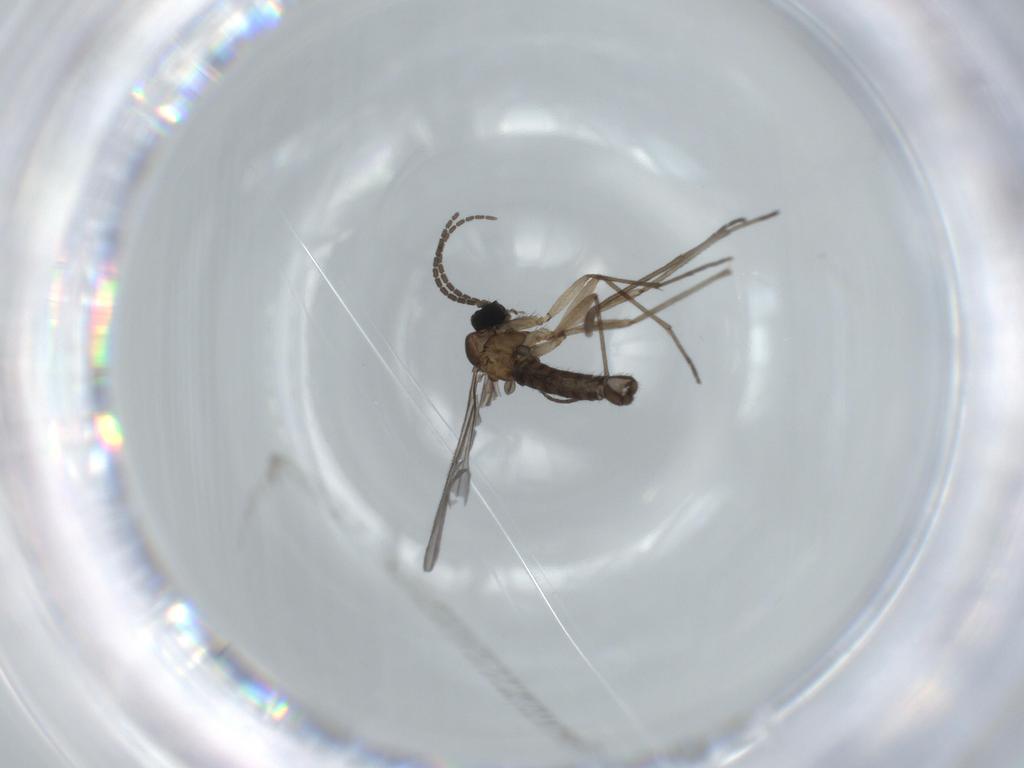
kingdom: Animalia
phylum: Arthropoda
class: Insecta
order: Diptera
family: Sciaridae
